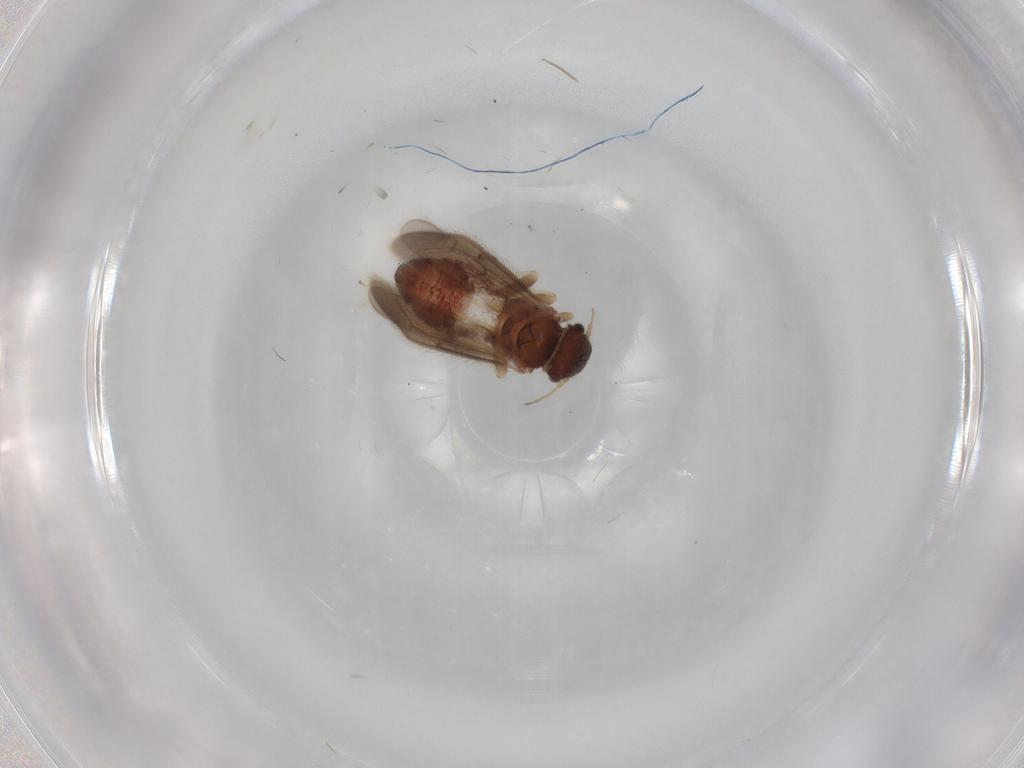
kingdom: Animalia
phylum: Arthropoda
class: Insecta
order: Psocodea
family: Archipsocidae
